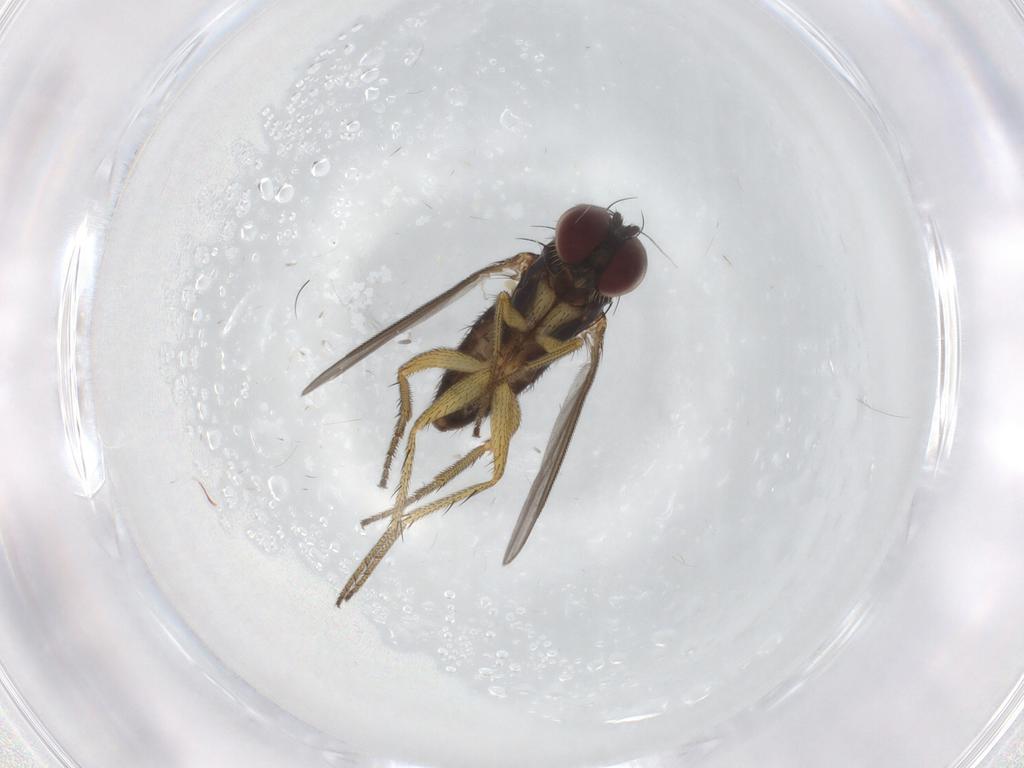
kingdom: Animalia
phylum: Arthropoda
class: Insecta
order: Diptera
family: Dolichopodidae
